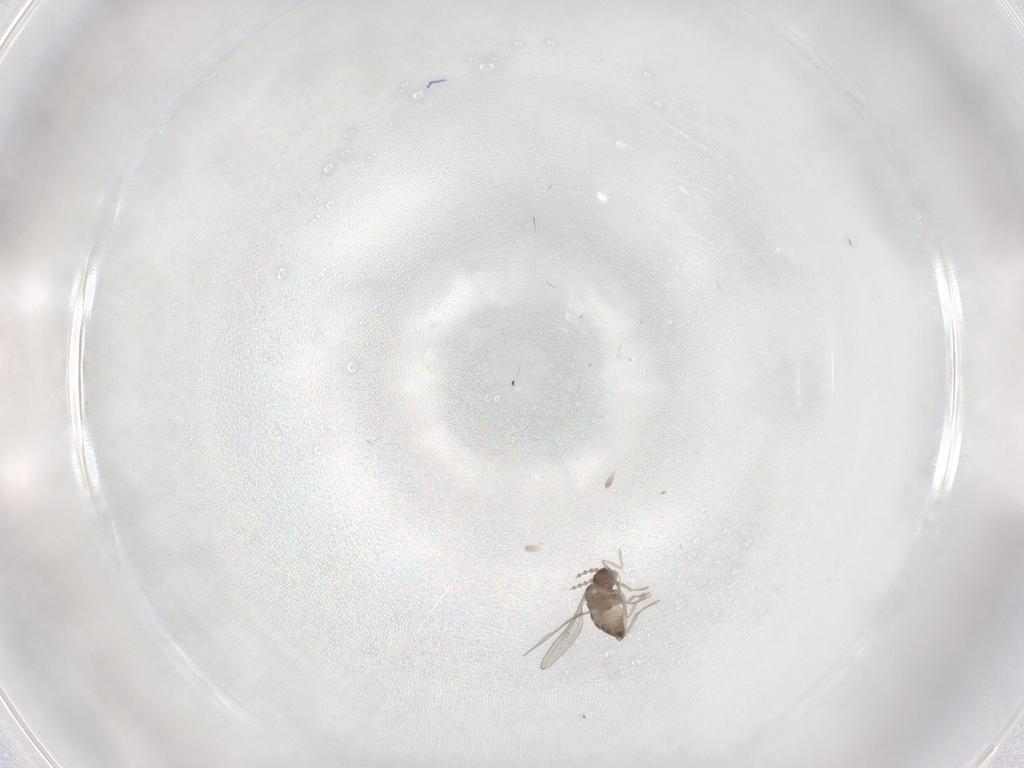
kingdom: Animalia
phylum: Arthropoda
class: Insecta
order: Diptera
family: Cecidomyiidae
